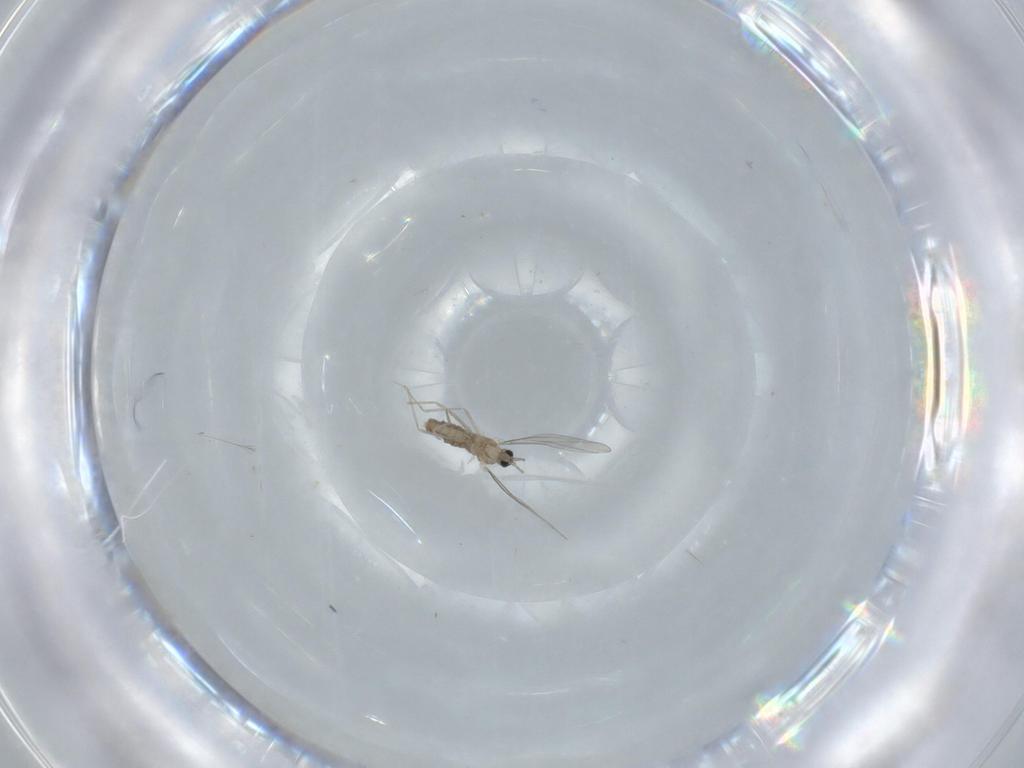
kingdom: Animalia
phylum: Arthropoda
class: Insecta
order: Diptera
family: Cecidomyiidae
